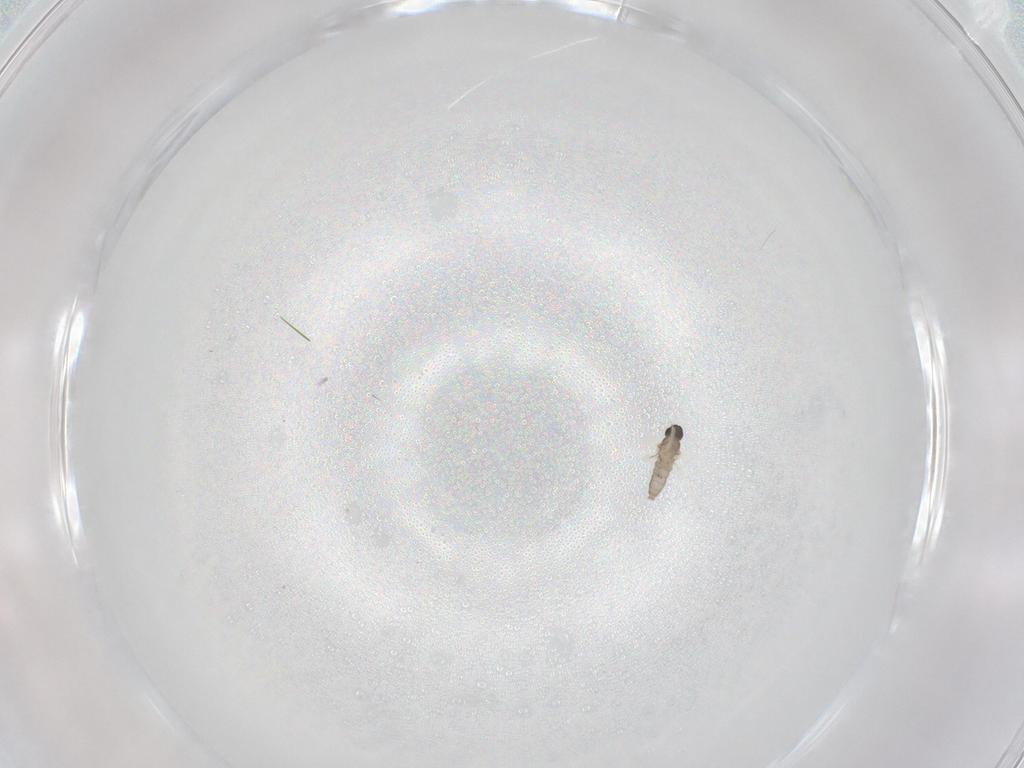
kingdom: Animalia
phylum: Arthropoda
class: Insecta
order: Diptera
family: Cecidomyiidae
